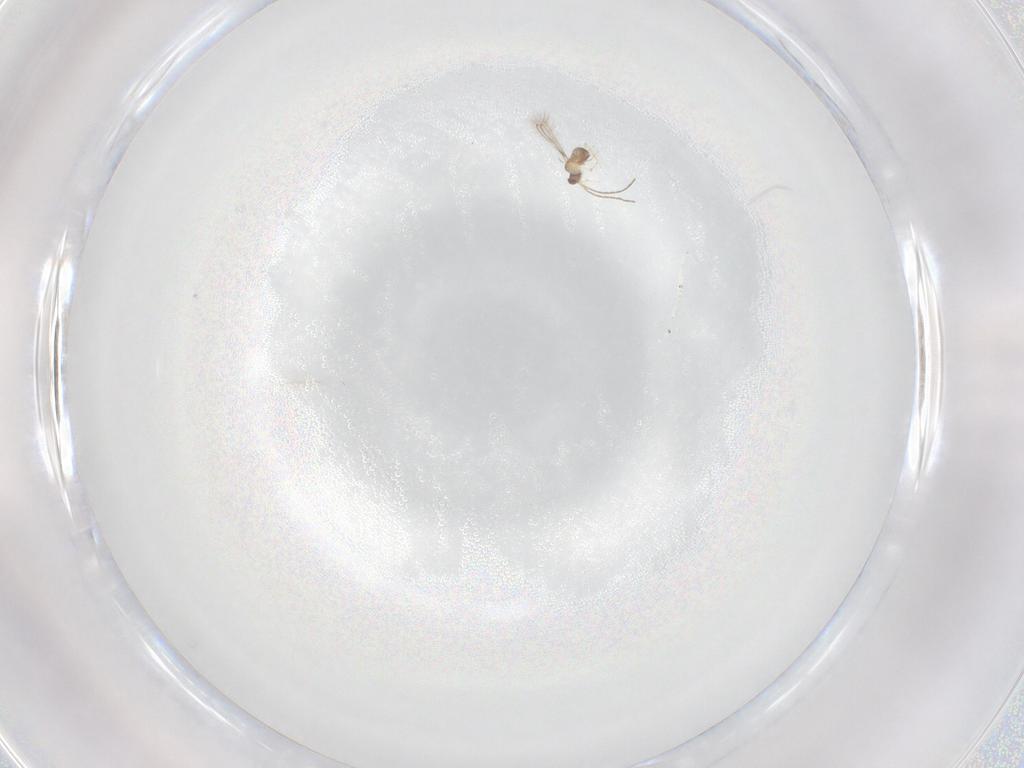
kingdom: Animalia
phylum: Arthropoda
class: Insecta
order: Hymenoptera
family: Mymaridae
